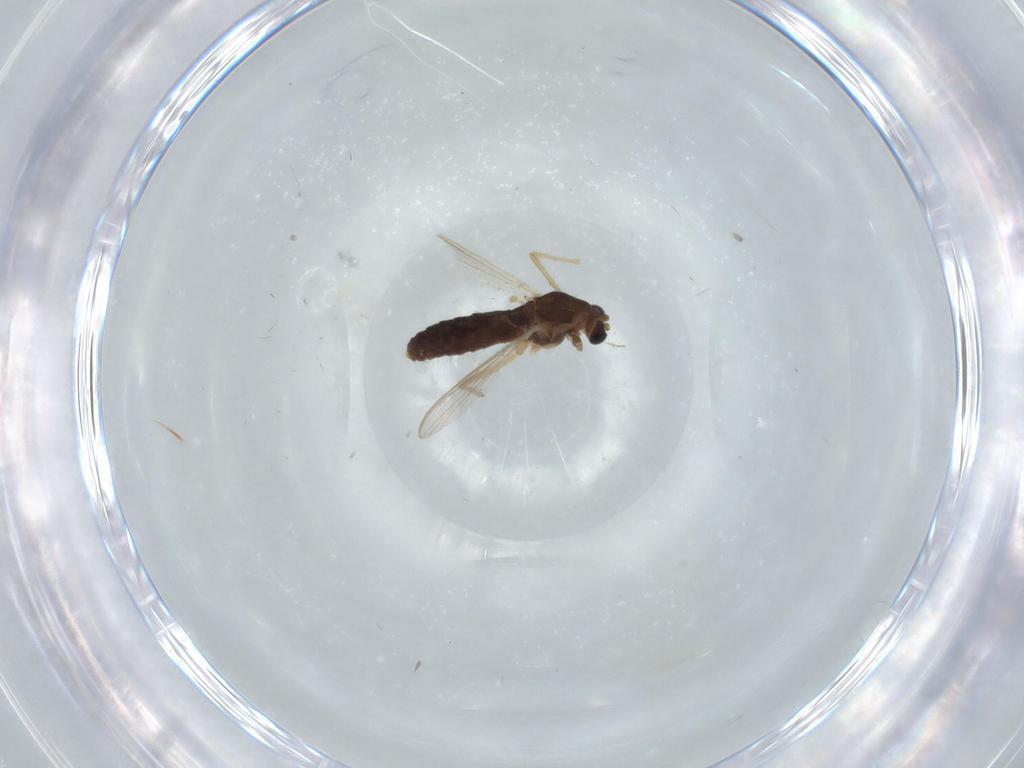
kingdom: Animalia
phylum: Arthropoda
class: Insecta
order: Diptera
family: Chironomidae
